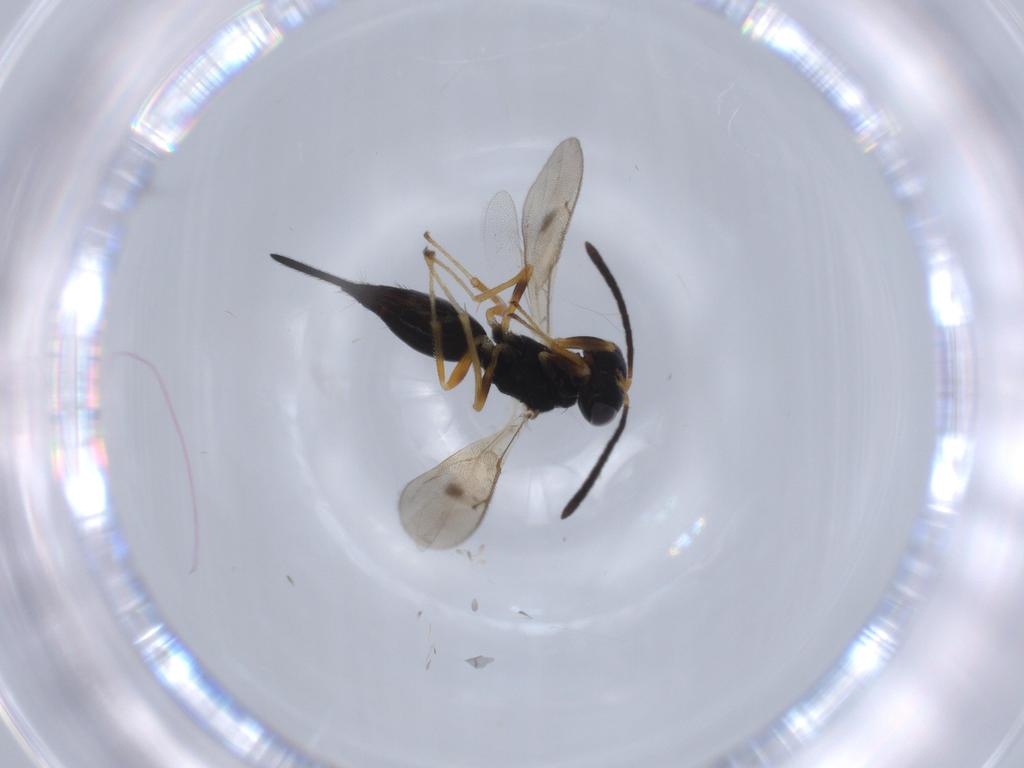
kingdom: Animalia
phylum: Arthropoda
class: Insecta
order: Hymenoptera
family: Pteromalidae
